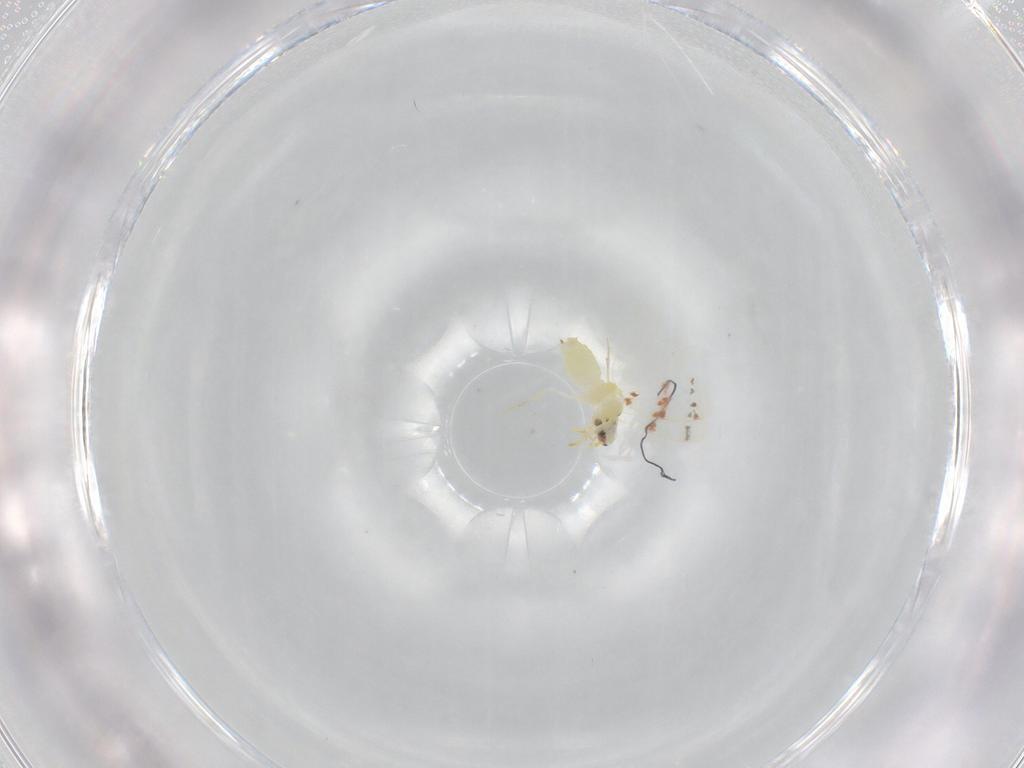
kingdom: Animalia
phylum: Arthropoda
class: Insecta
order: Hemiptera
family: Aleyrodidae
